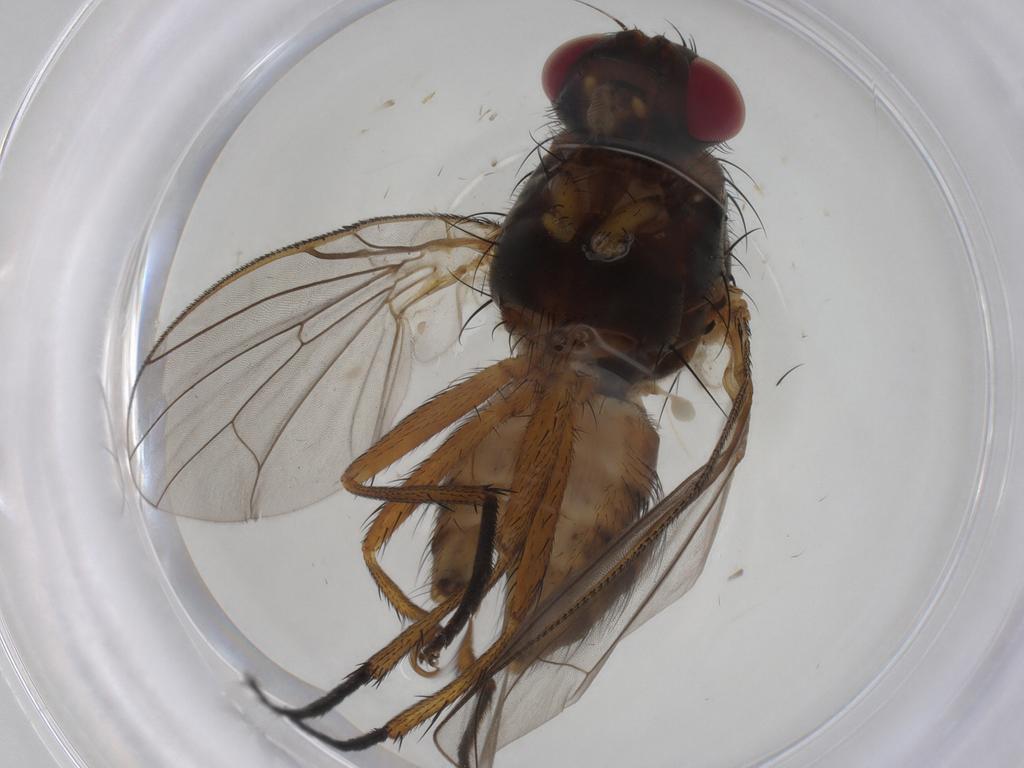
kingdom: Animalia
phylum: Arthropoda
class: Insecta
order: Diptera
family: Anthomyiidae
